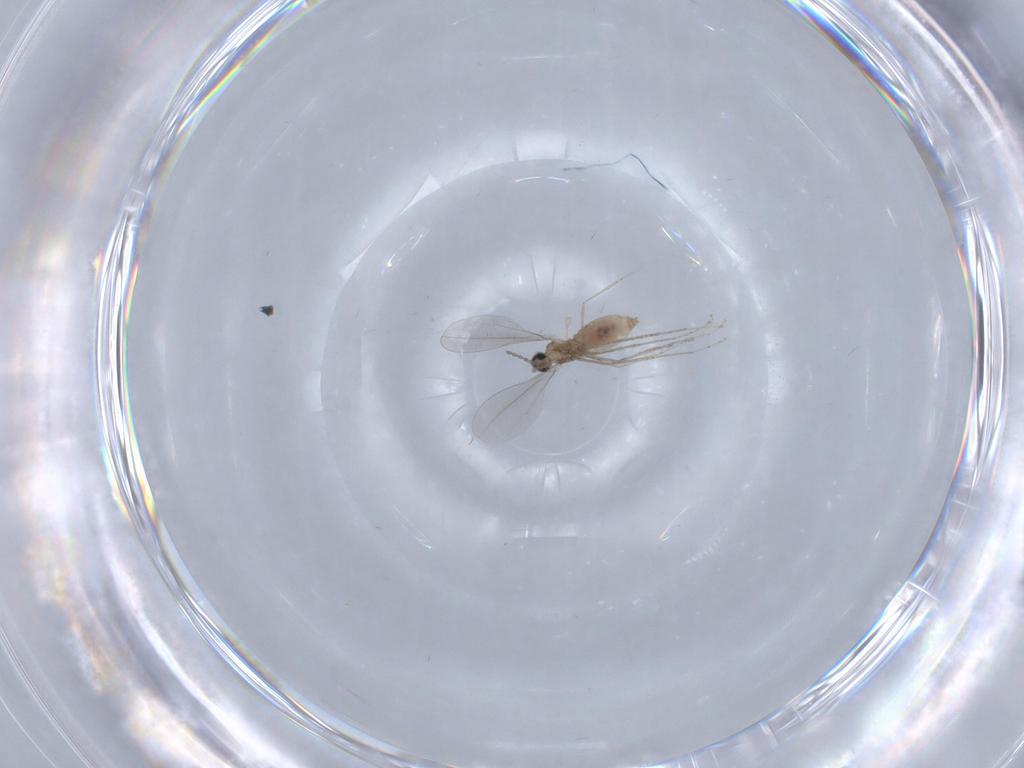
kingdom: Animalia
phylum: Arthropoda
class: Insecta
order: Diptera
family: Cecidomyiidae
